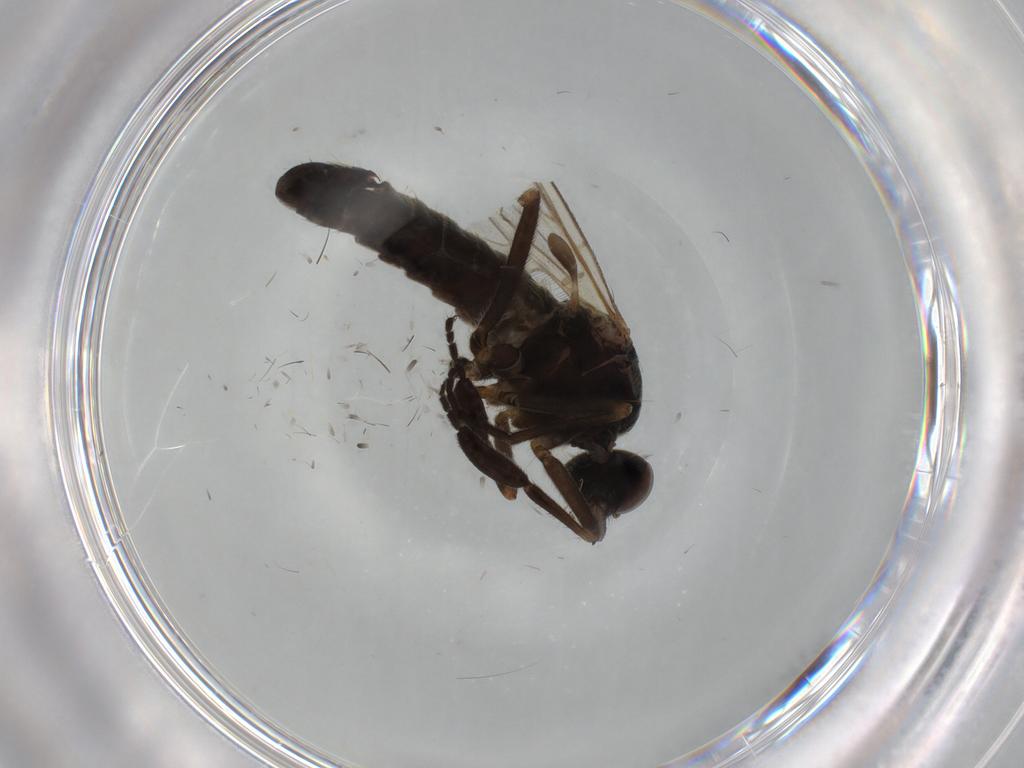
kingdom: Animalia
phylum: Arthropoda
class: Insecta
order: Diptera
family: Empididae
